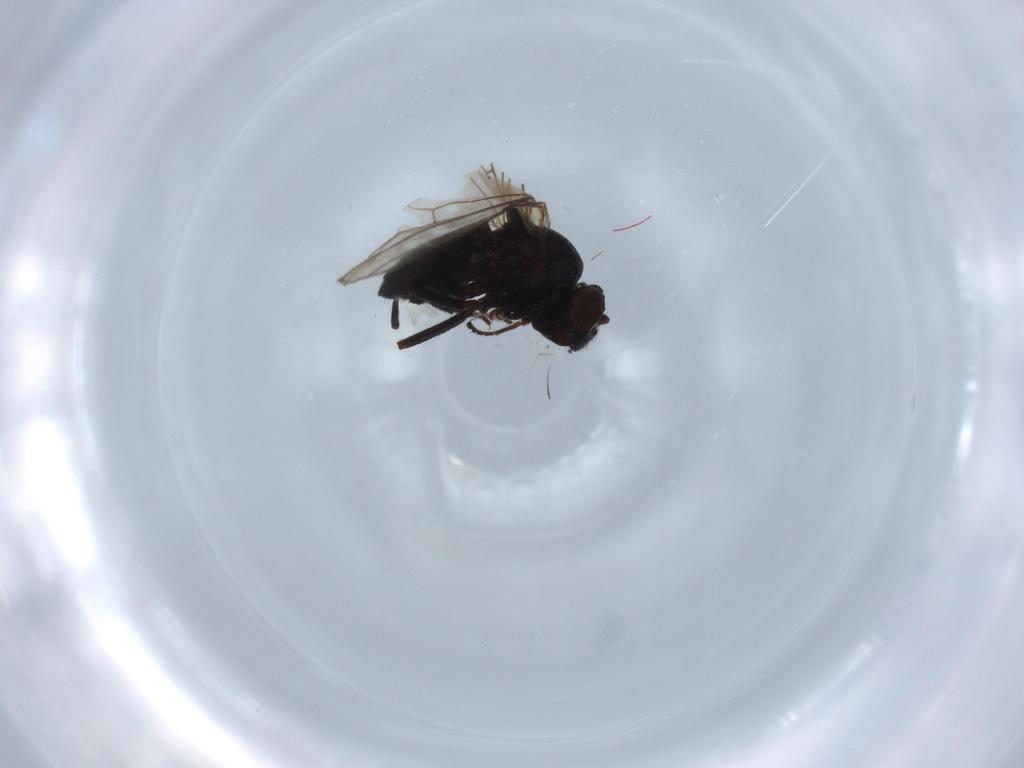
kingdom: Animalia
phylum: Arthropoda
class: Insecta
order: Diptera
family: Ephydridae
